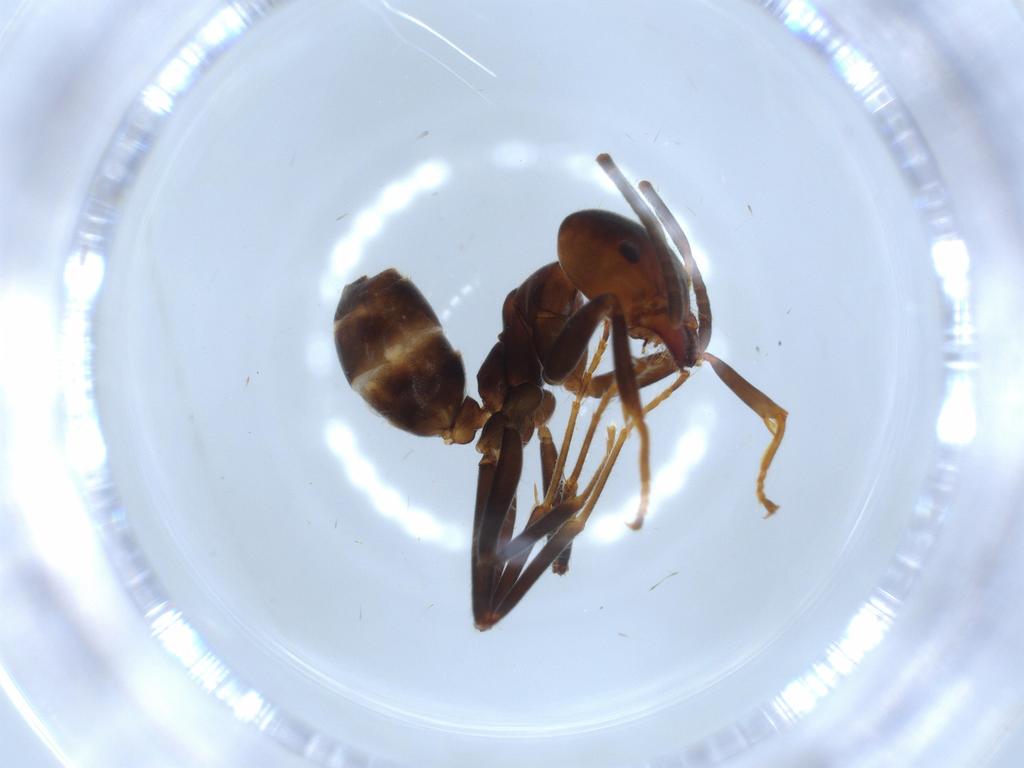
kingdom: Animalia
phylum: Arthropoda
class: Insecta
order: Hymenoptera
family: Formicidae
